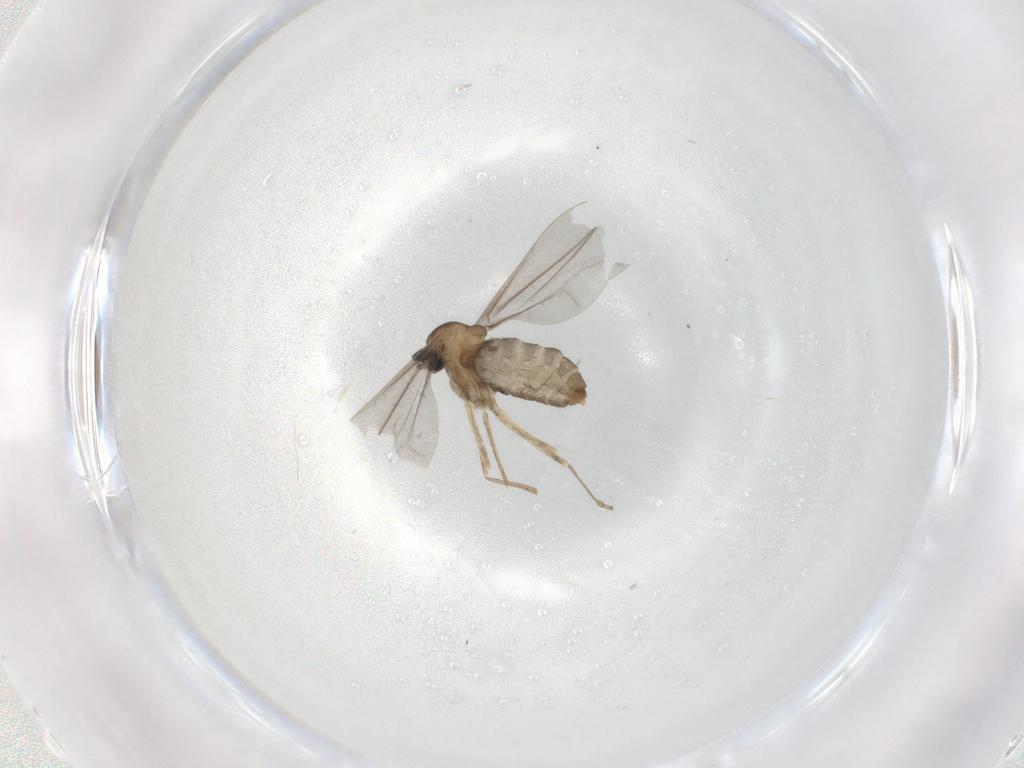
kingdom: Animalia
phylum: Arthropoda
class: Insecta
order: Diptera
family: Cecidomyiidae
